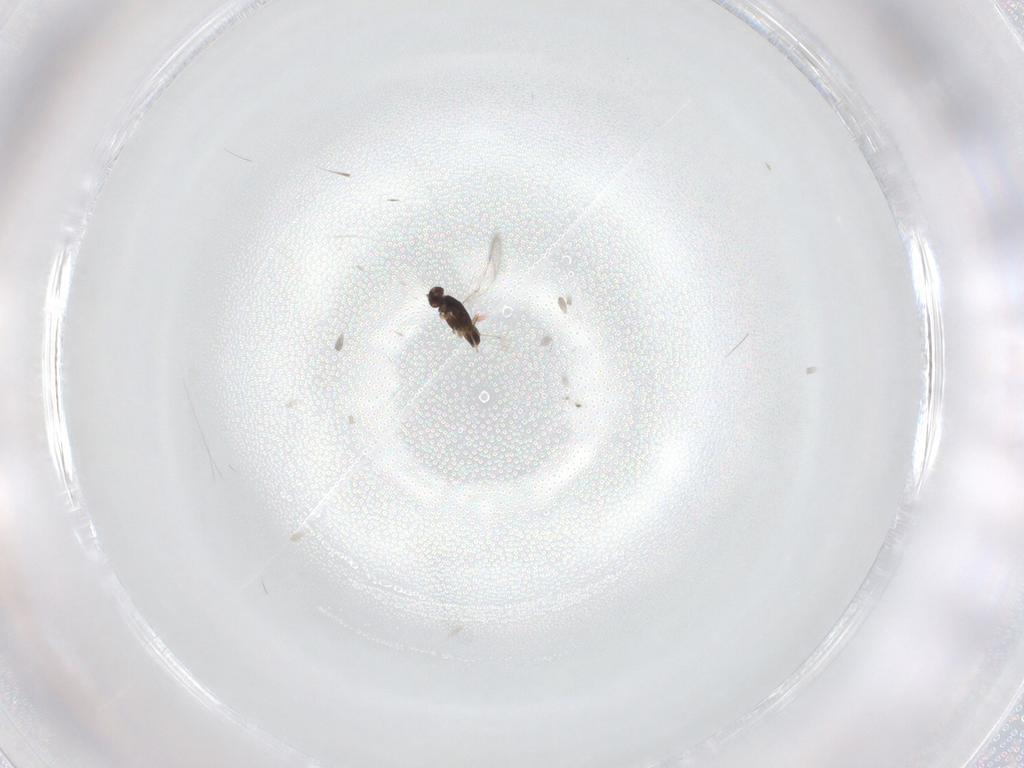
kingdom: Animalia
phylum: Arthropoda
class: Insecta
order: Hymenoptera
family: Mymaridae
